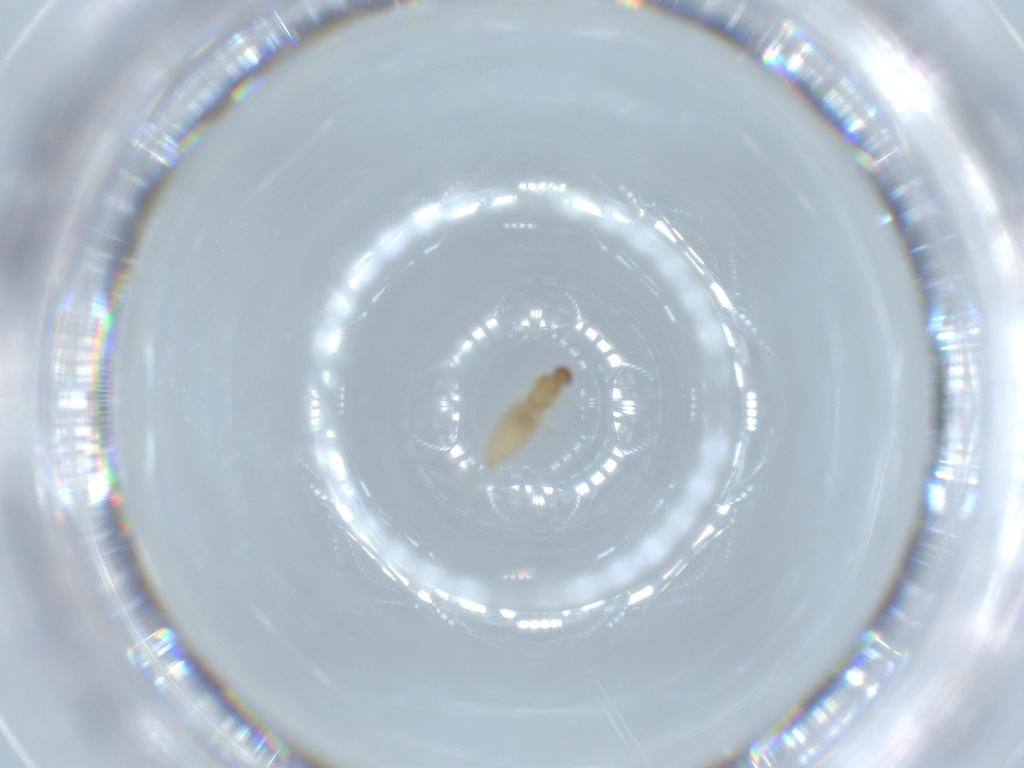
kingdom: Animalia
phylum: Arthropoda
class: Insecta
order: Diptera
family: Cecidomyiidae
